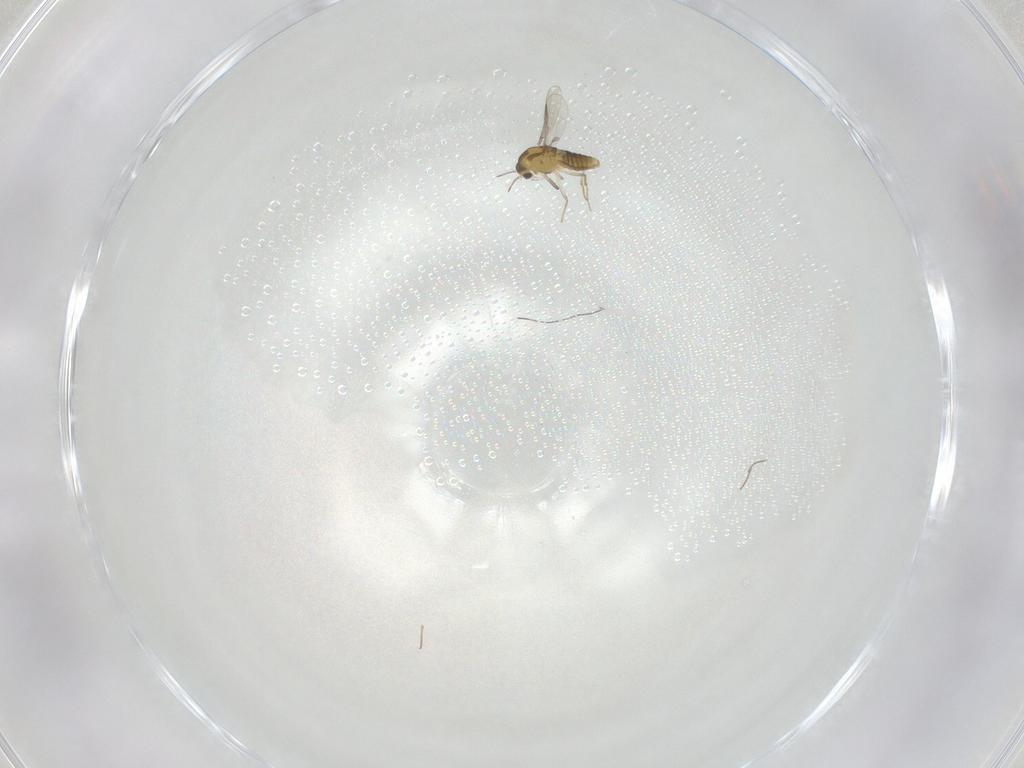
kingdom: Animalia
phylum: Arthropoda
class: Insecta
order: Diptera
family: Chironomidae
